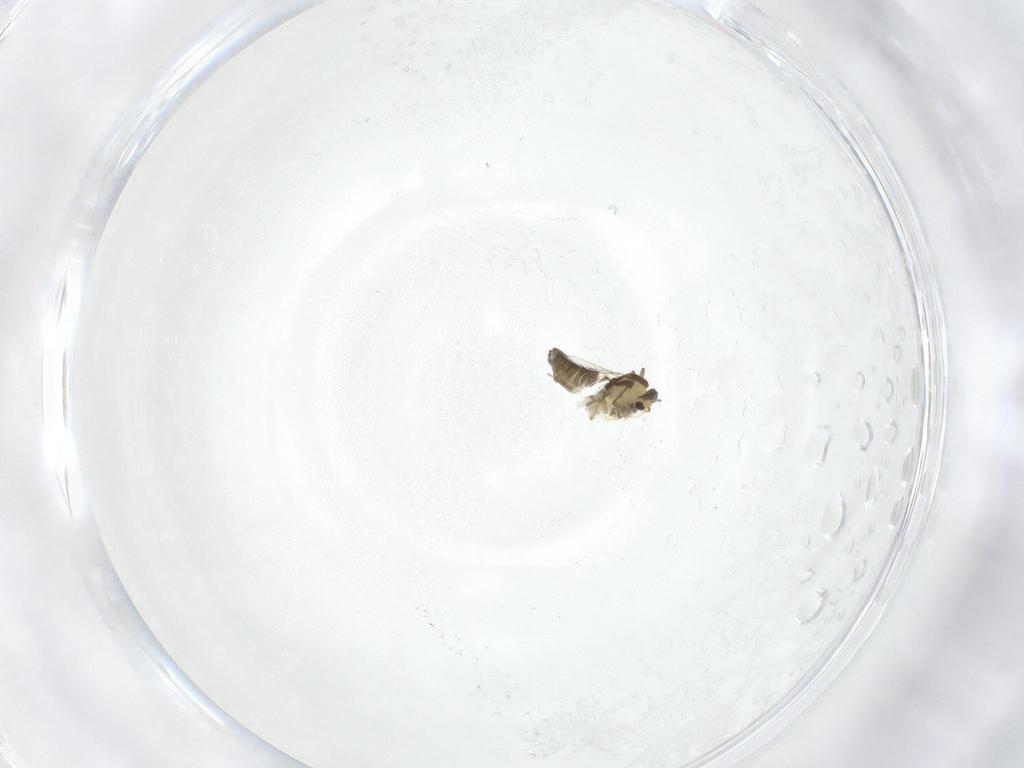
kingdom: Animalia
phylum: Arthropoda
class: Insecta
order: Diptera
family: Chironomidae
